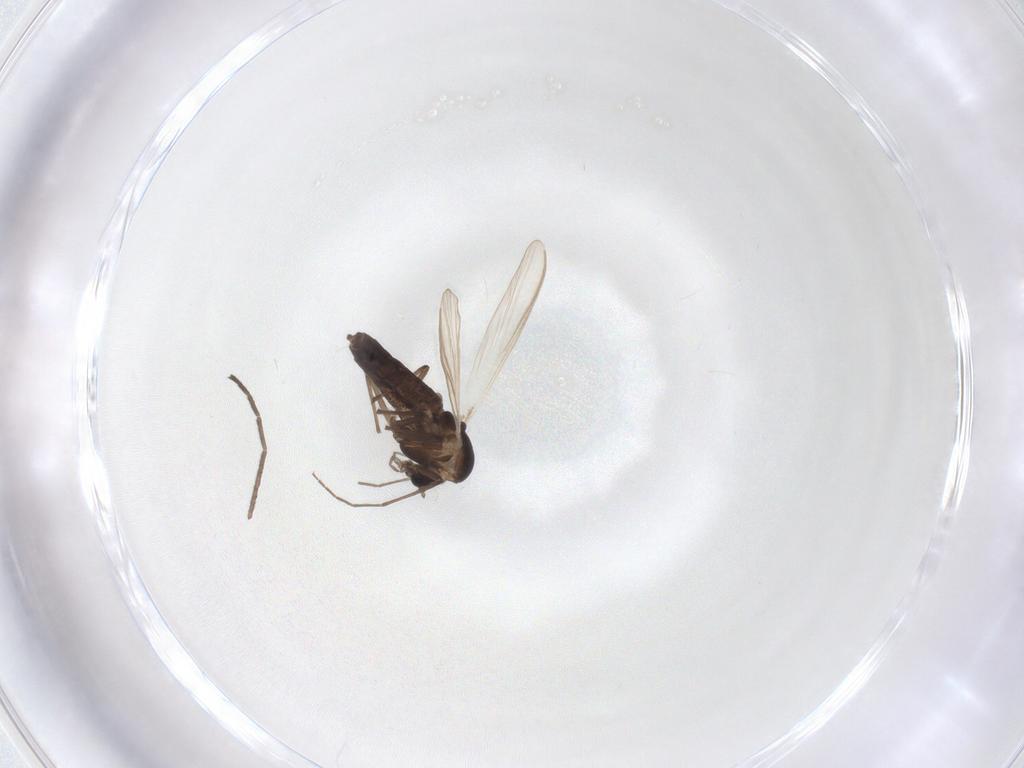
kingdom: Animalia
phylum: Arthropoda
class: Insecta
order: Diptera
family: Cecidomyiidae
